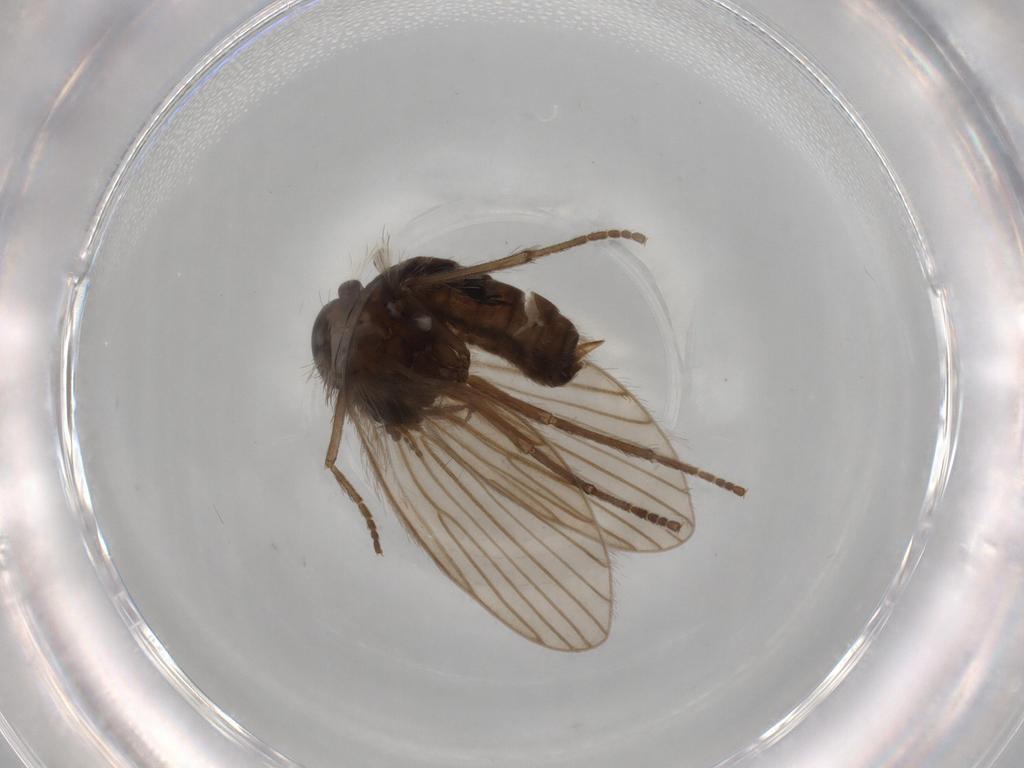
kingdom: Animalia
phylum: Arthropoda
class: Insecta
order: Diptera
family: Psychodidae
